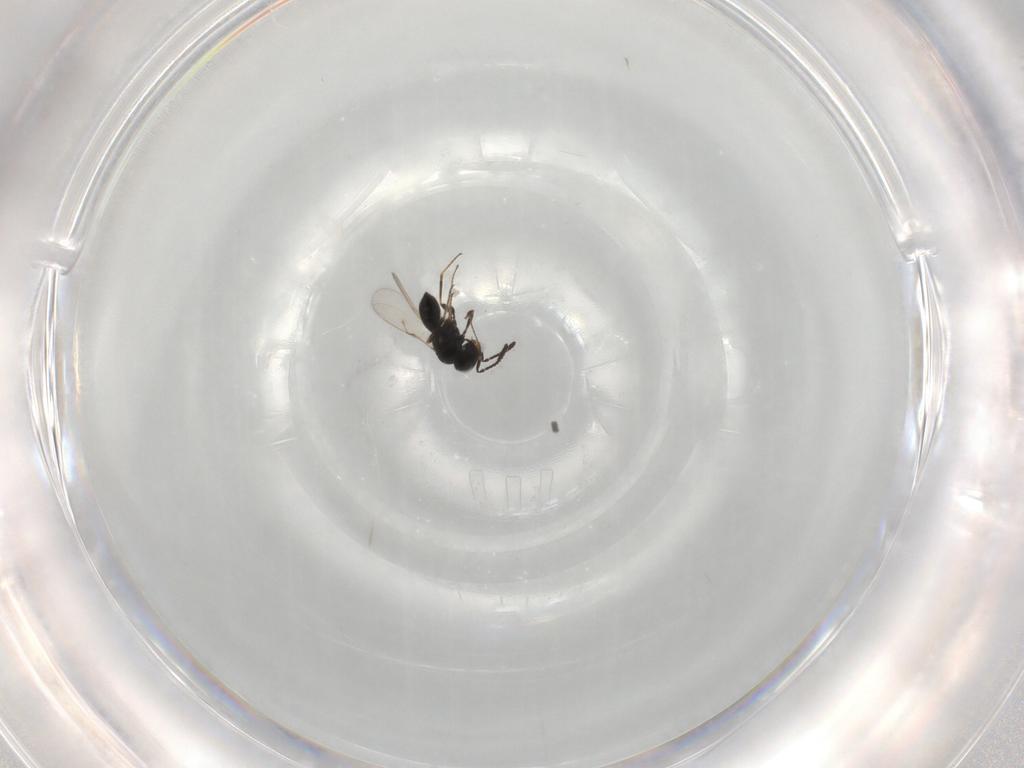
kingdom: Animalia
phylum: Arthropoda
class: Insecta
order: Hymenoptera
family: Scelionidae
